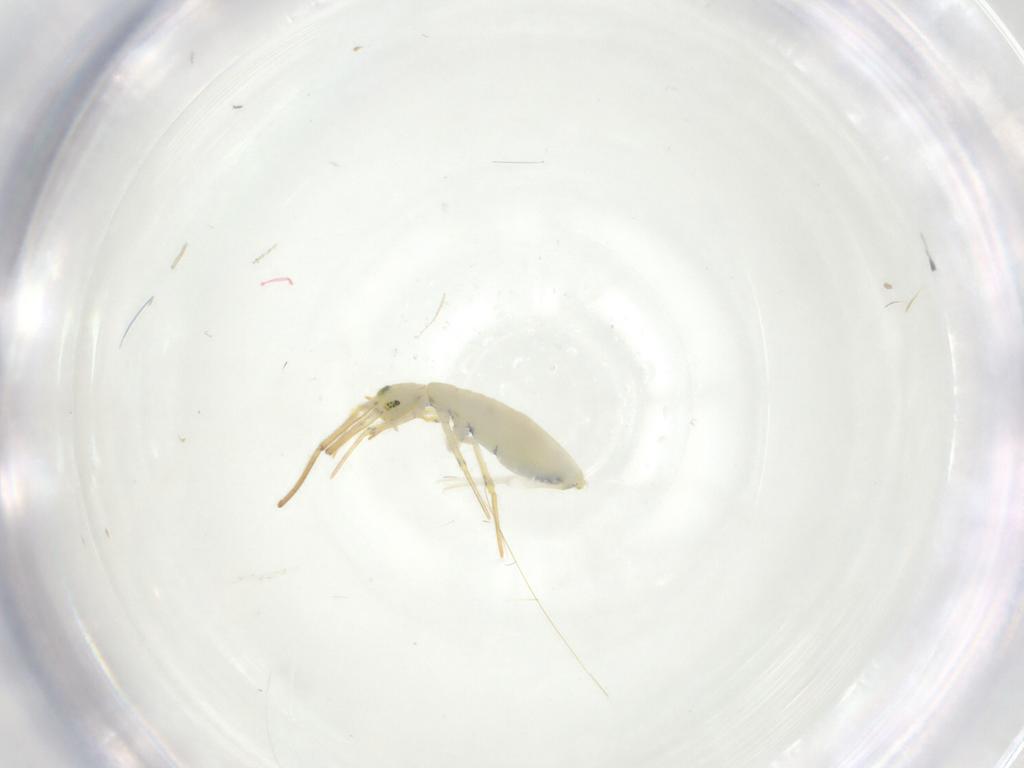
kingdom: Animalia
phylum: Arthropoda
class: Collembola
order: Entomobryomorpha
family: Entomobryidae
